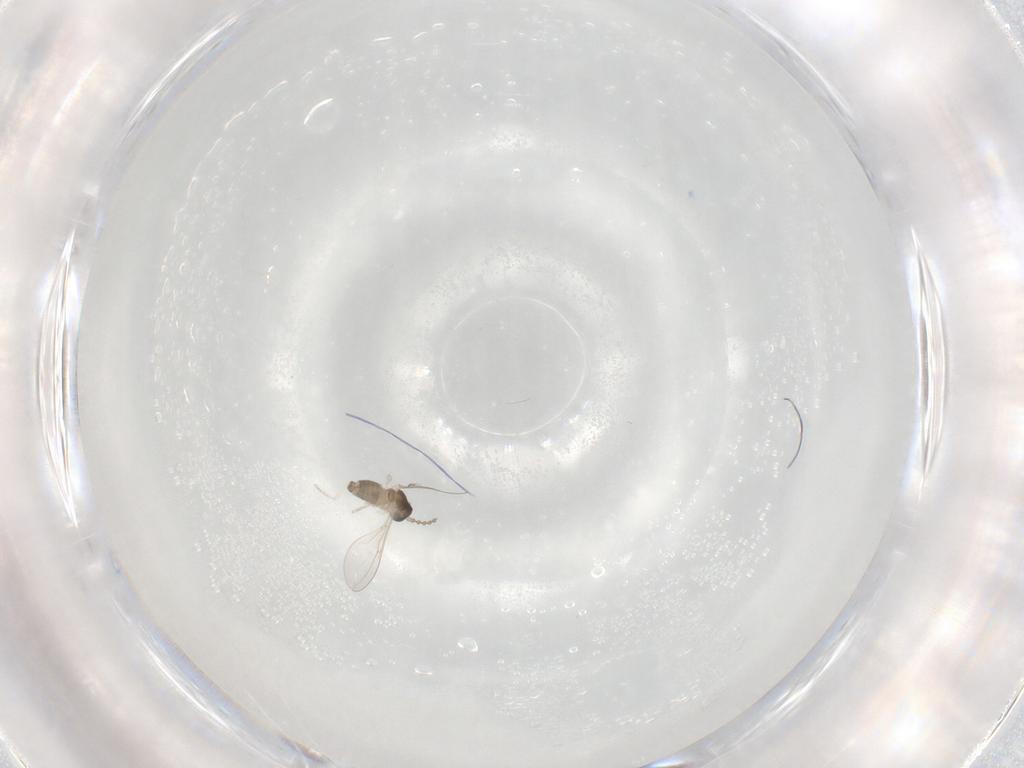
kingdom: Animalia
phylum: Arthropoda
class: Insecta
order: Diptera
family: Cecidomyiidae
